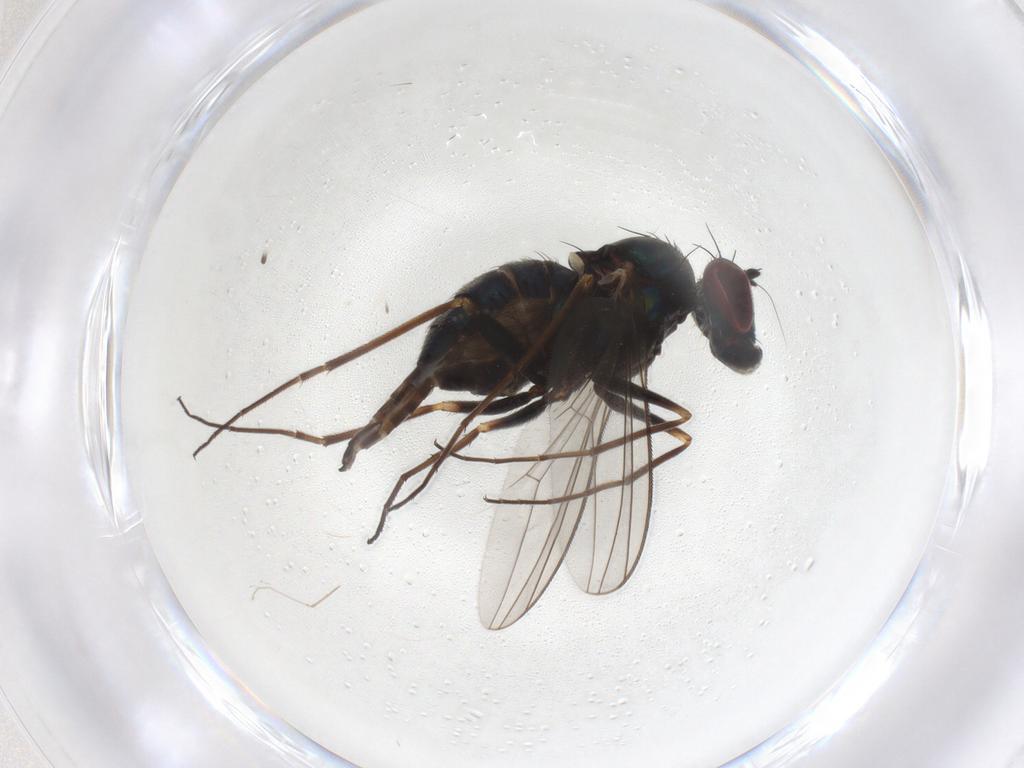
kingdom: Animalia
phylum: Arthropoda
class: Insecta
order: Diptera
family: Dolichopodidae
